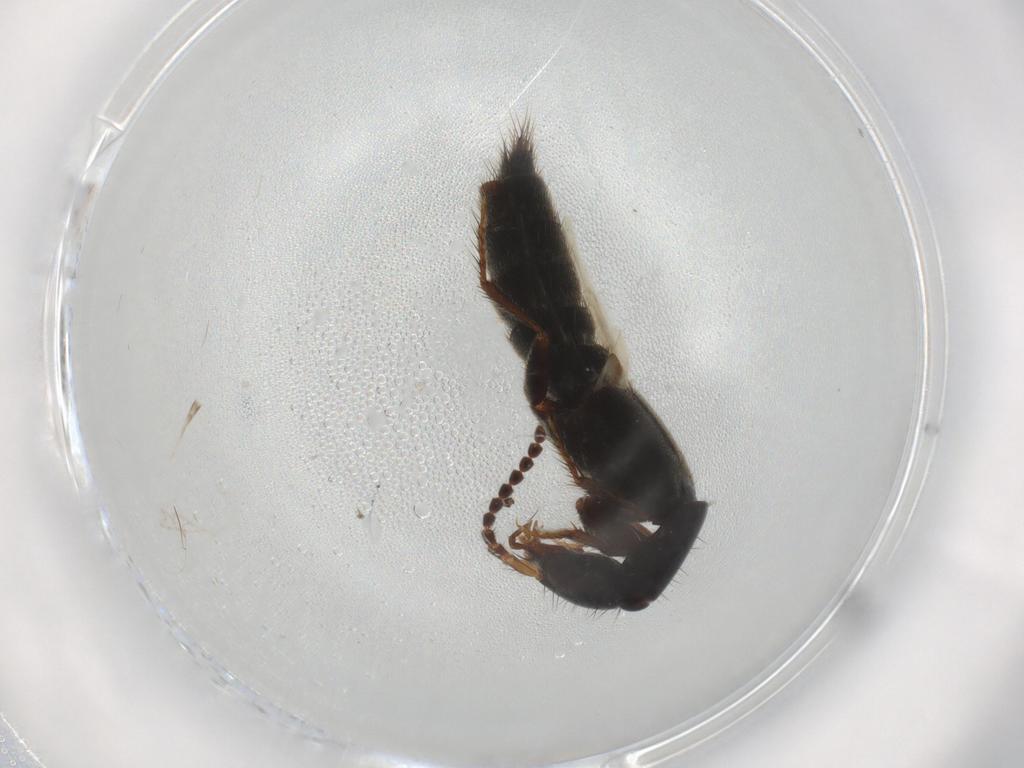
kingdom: Animalia
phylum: Arthropoda
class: Insecta
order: Coleoptera
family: Staphylinidae
